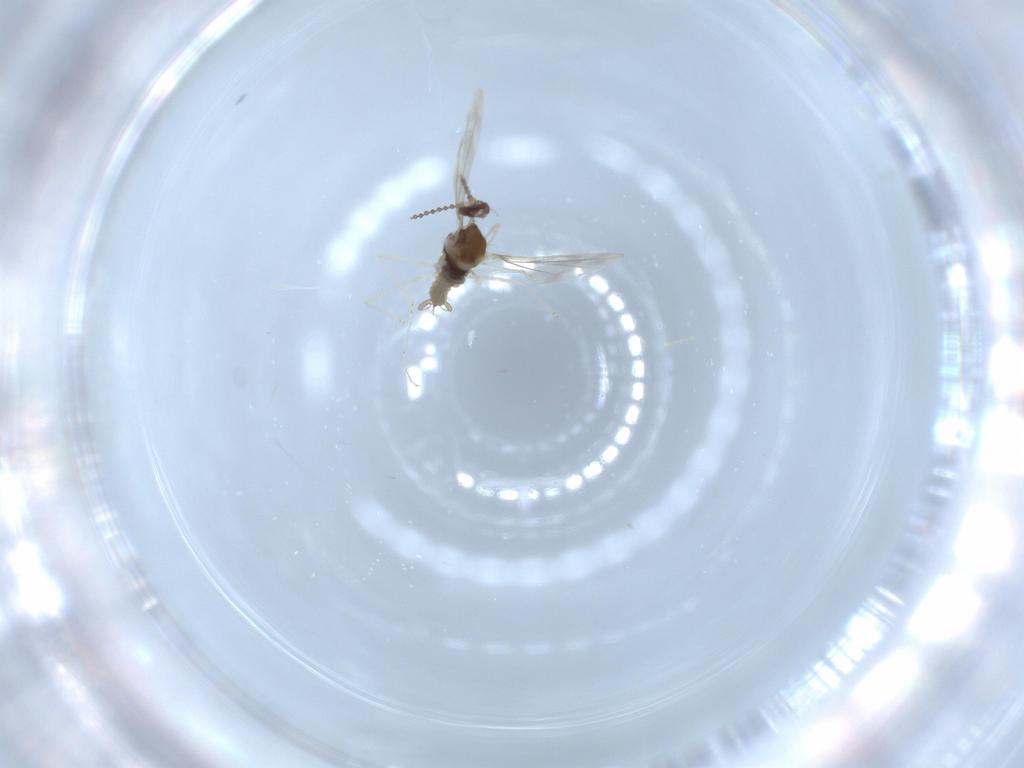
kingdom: Animalia
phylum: Arthropoda
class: Insecta
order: Diptera
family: Cecidomyiidae
